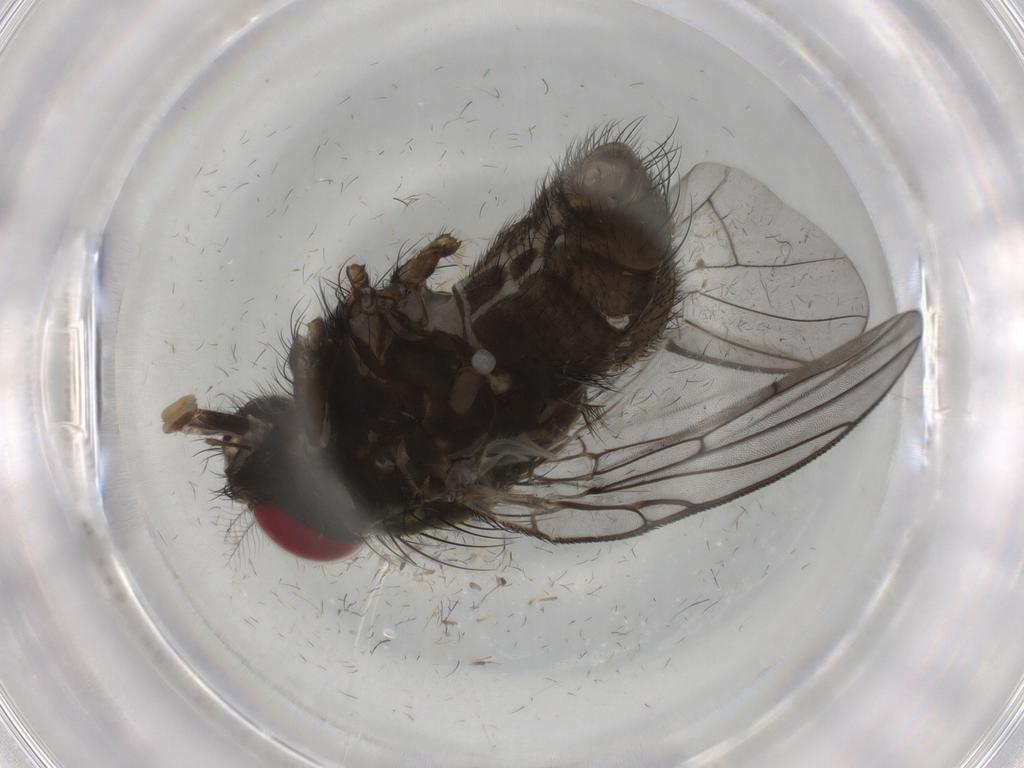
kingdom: Animalia
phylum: Arthropoda
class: Insecta
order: Diptera
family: Muscidae
